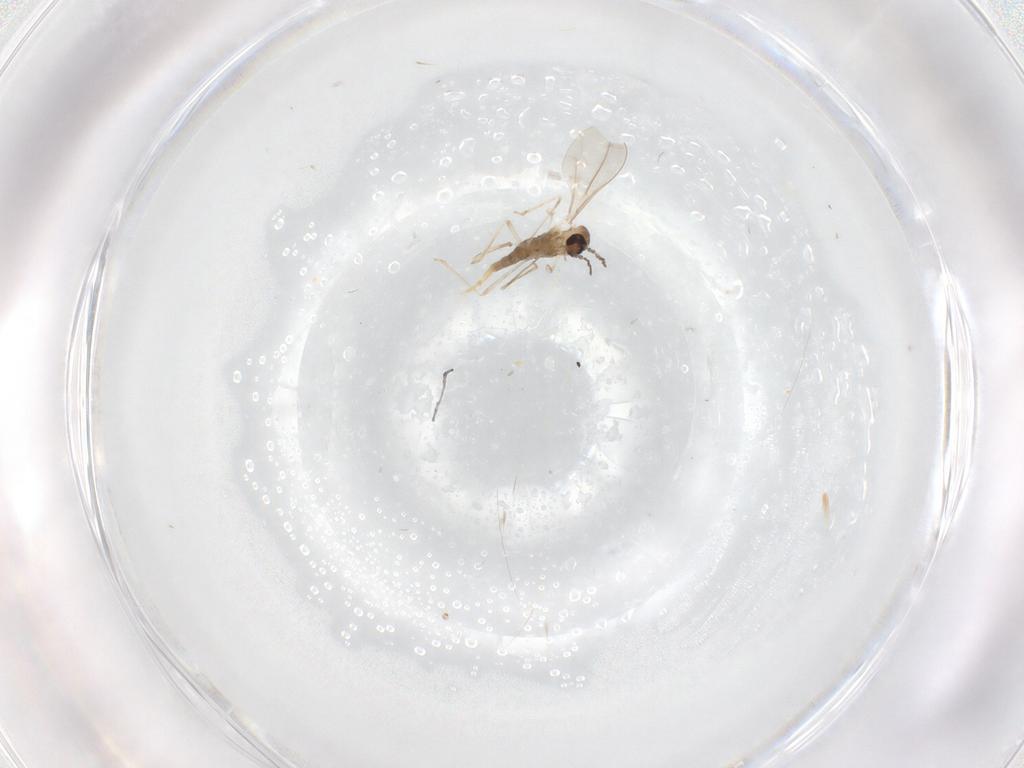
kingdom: Animalia
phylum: Arthropoda
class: Insecta
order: Diptera
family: Cecidomyiidae
